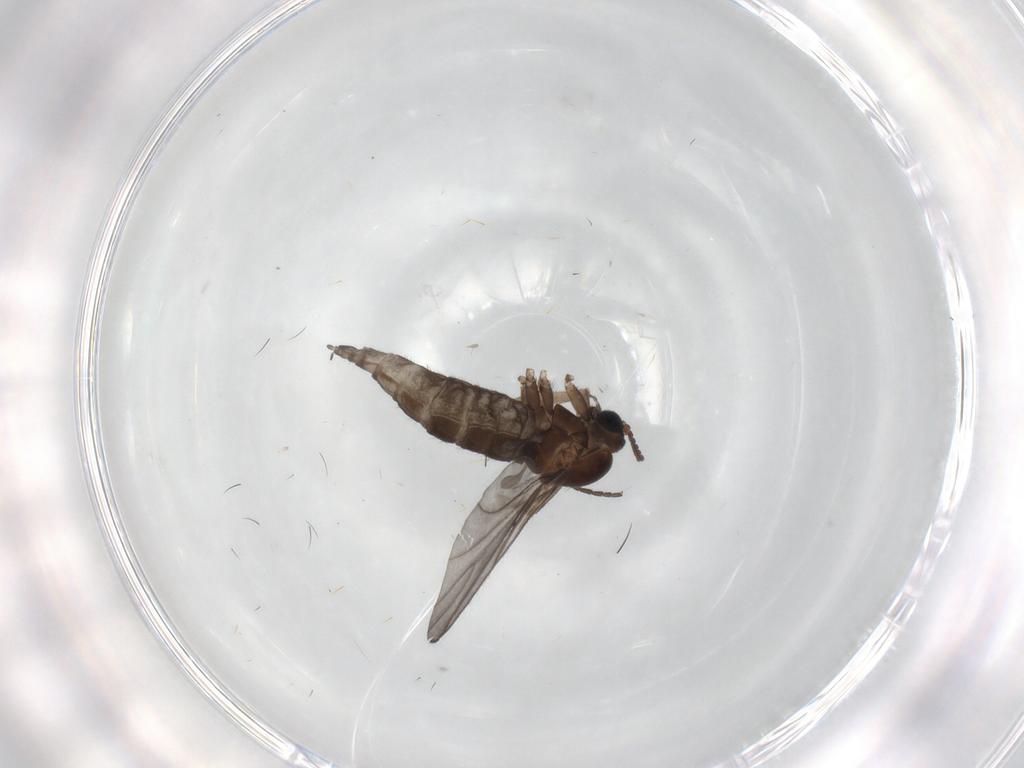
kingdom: Animalia
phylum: Arthropoda
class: Insecta
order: Diptera
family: Sciaridae
